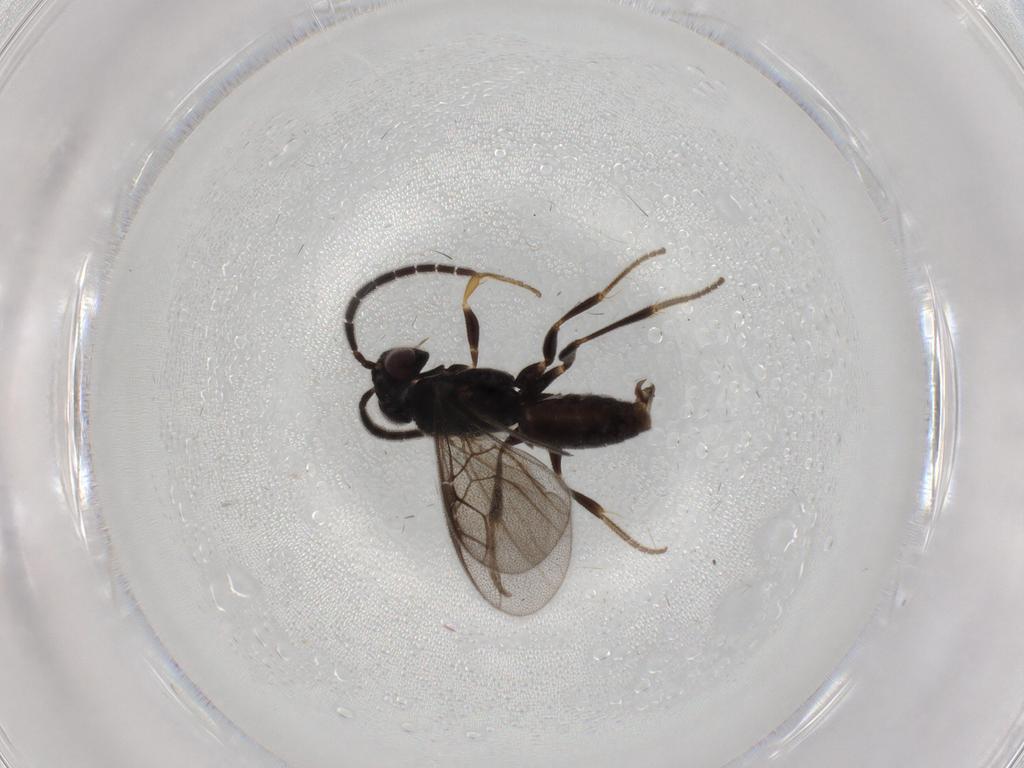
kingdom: Animalia
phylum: Arthropoda
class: Insecta
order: Hymenoptera
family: Dryinidae
